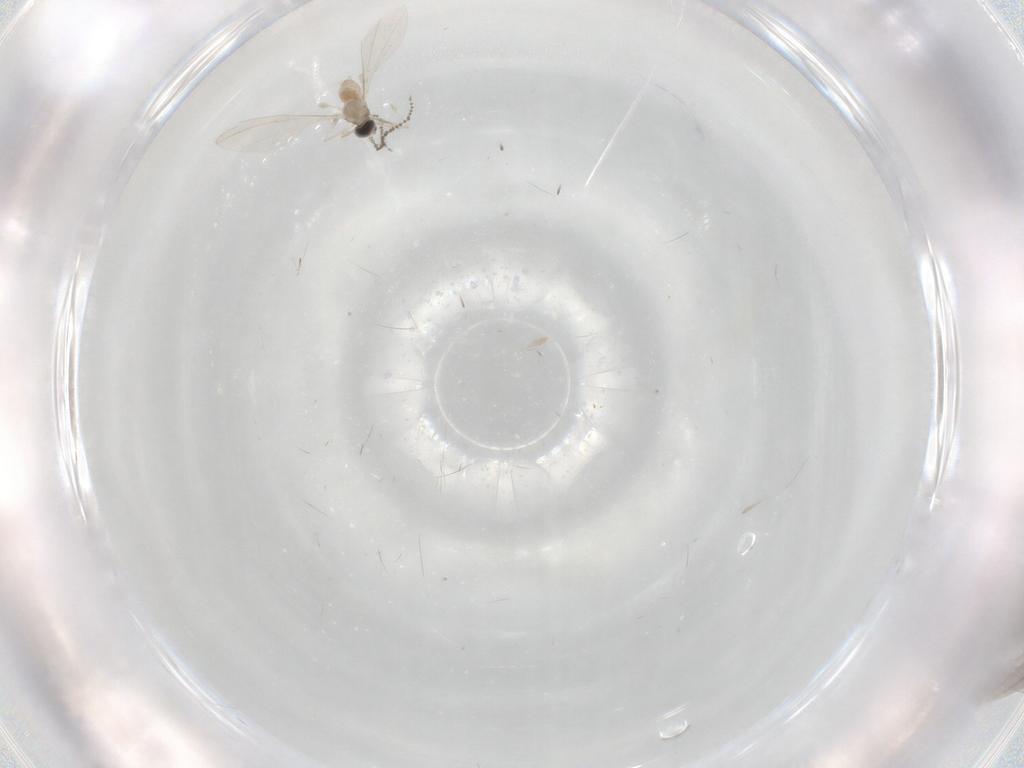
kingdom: Animalia
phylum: Arthropoda
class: Insecta
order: Diptera
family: Cecidomyiidae
